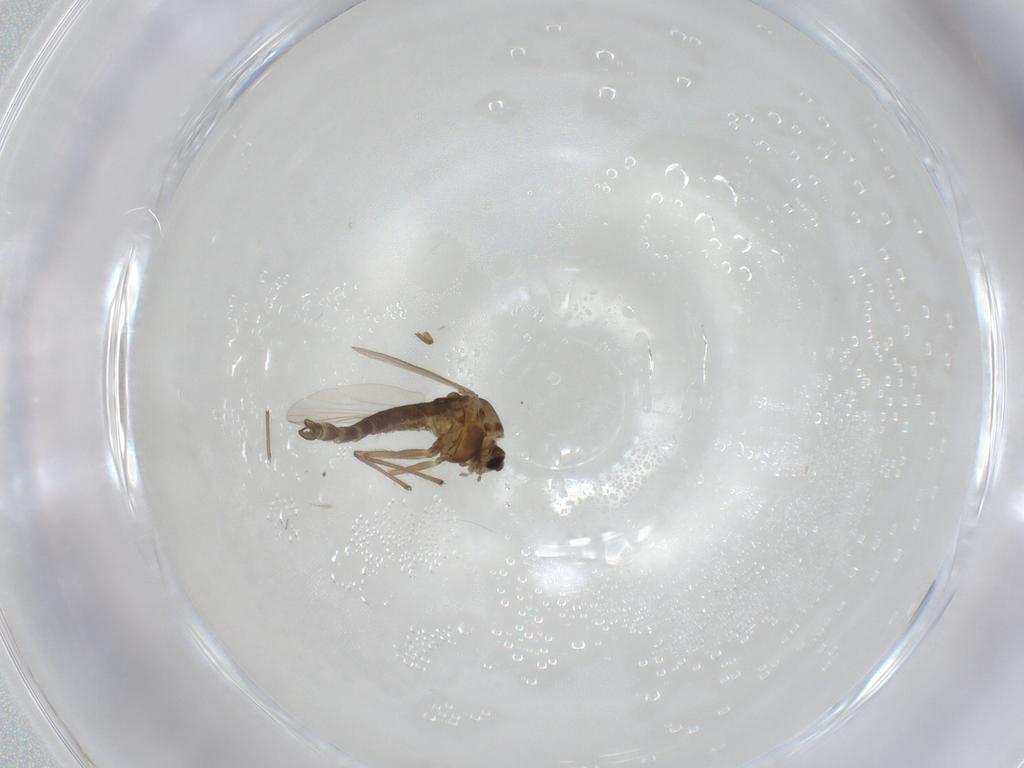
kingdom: Animalia
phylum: Arthropoda
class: Insecta
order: Diptera
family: Chironomidae
